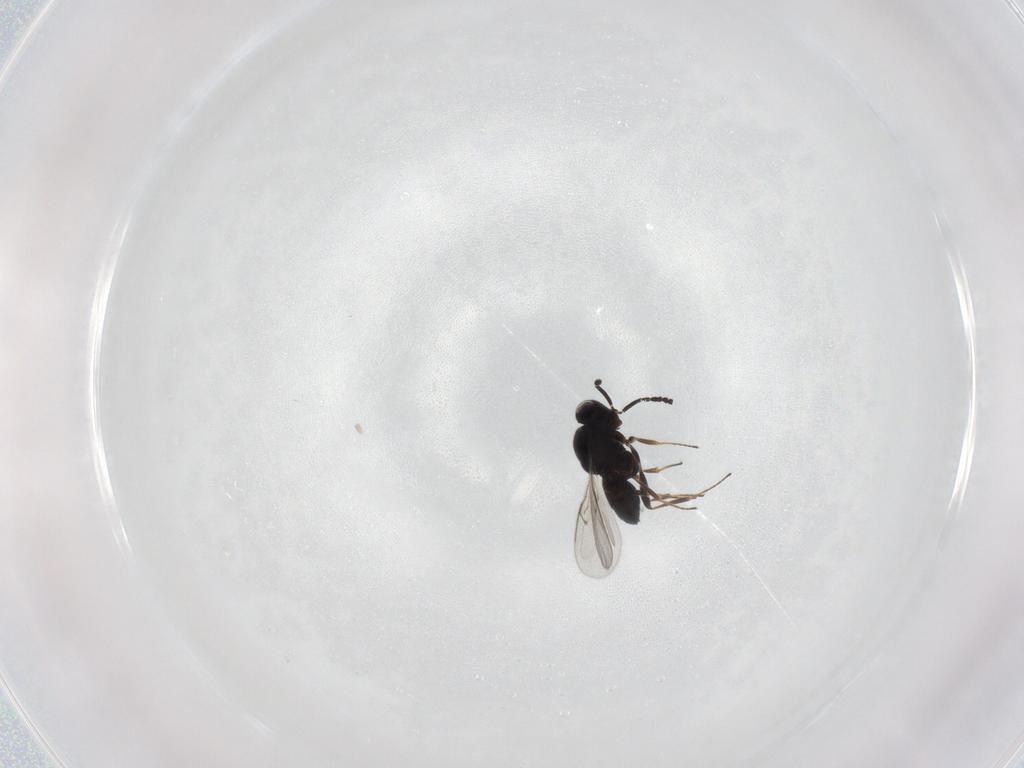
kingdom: Animalia
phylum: Arthropoda
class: Insecta
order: Hymenoptera
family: Scelionidae
